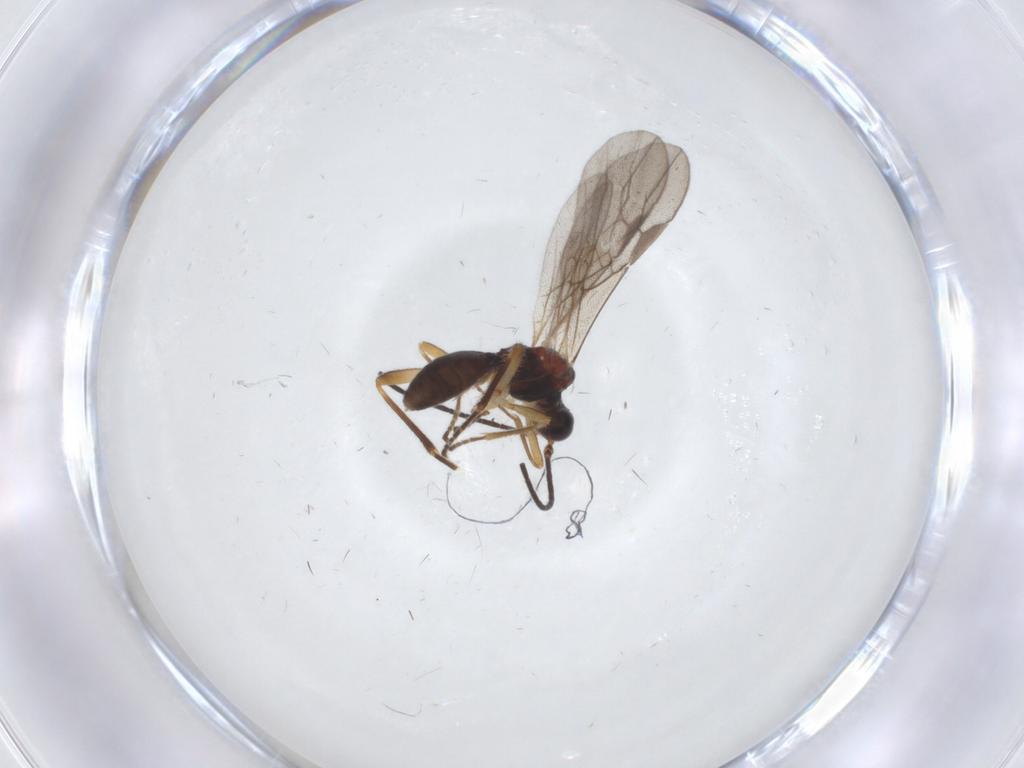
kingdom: Animalia
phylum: Arthropoda
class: Insecta
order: Hymenoptera
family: Braconidae
